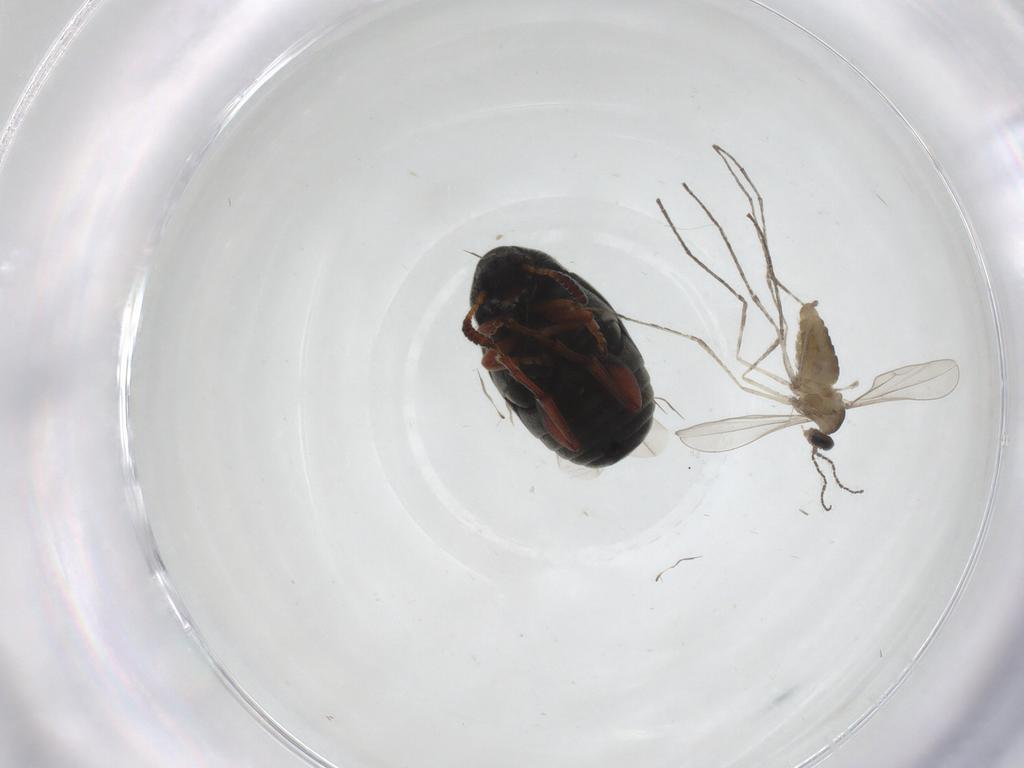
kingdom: Animalia
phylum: Arthropoda
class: Insecta
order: Diptera
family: Cecidomyiidae
